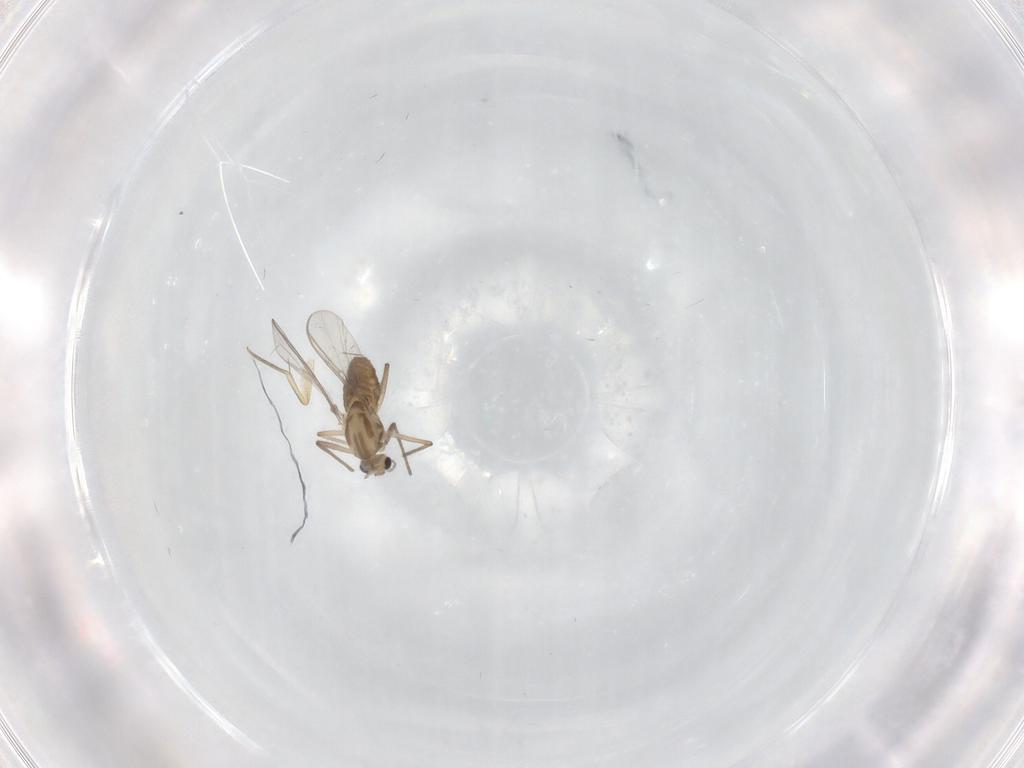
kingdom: Animalia
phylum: Arthropoda
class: Insecta
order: Diptera
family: Chironomidae
